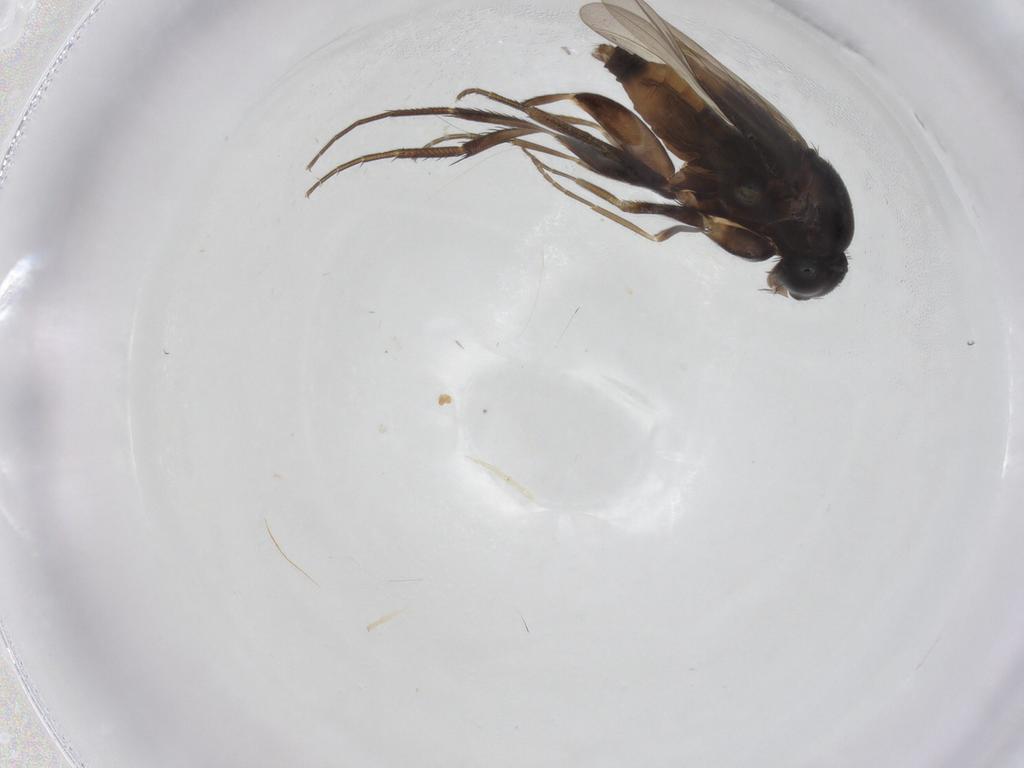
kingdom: Animalia
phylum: Arthropoda
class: Insecta
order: Diptera
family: Phoridae
